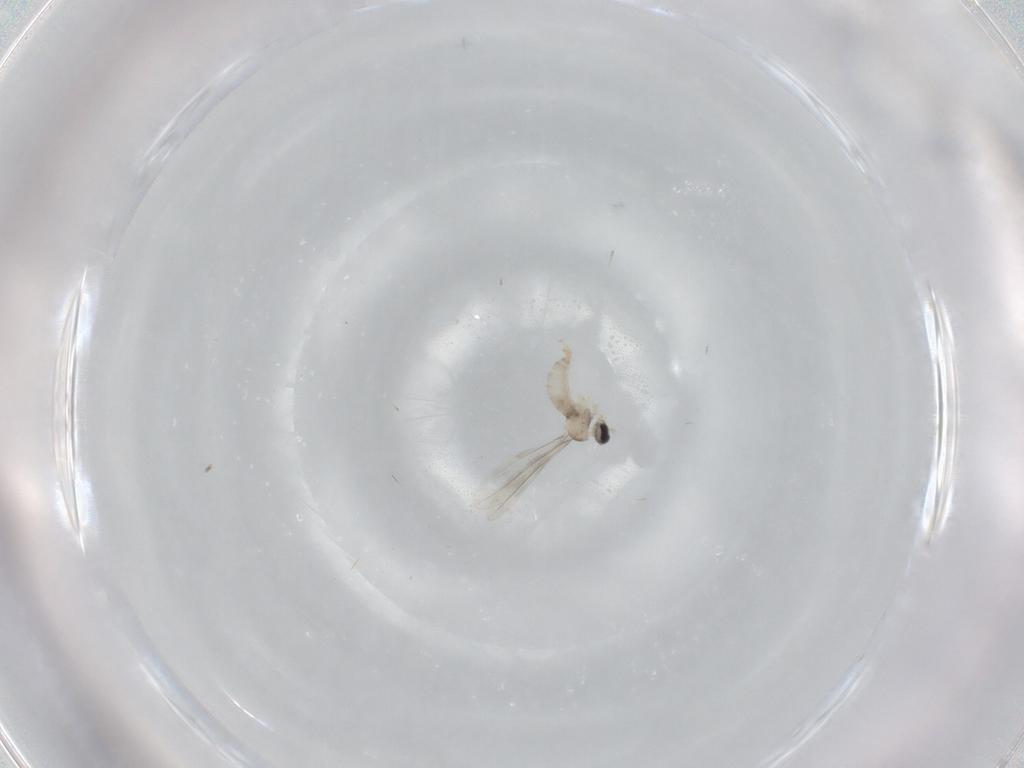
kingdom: Animalia
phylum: Arthropoda
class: Insecta
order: Diptera
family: Cecidomyiidae
